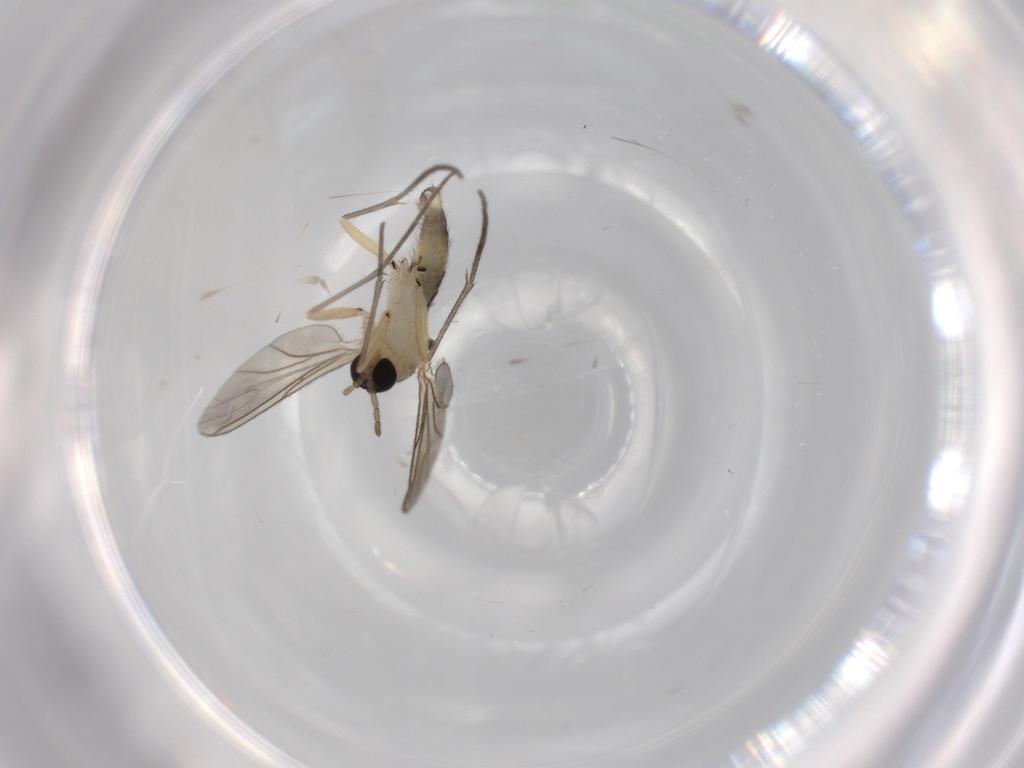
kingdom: Animalia
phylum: Arthropoda
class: Insecta
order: Diptera
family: Sciaridae
